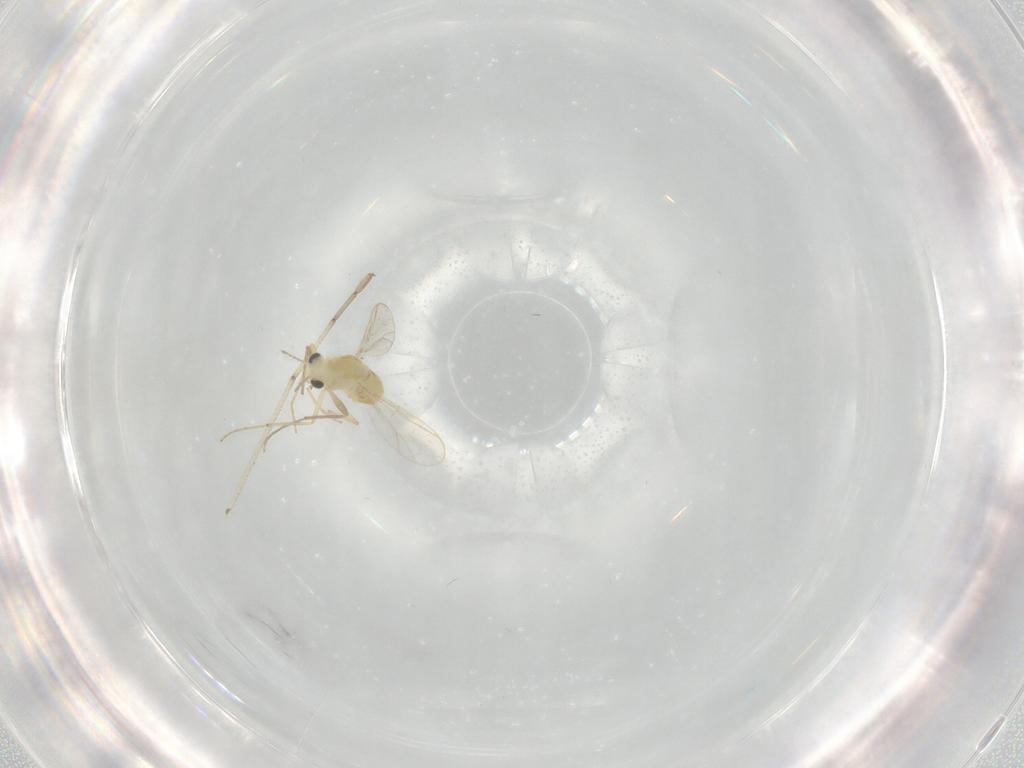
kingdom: Animalia
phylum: Arthropoda
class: Insecta
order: Diptera
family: Chironomidae
